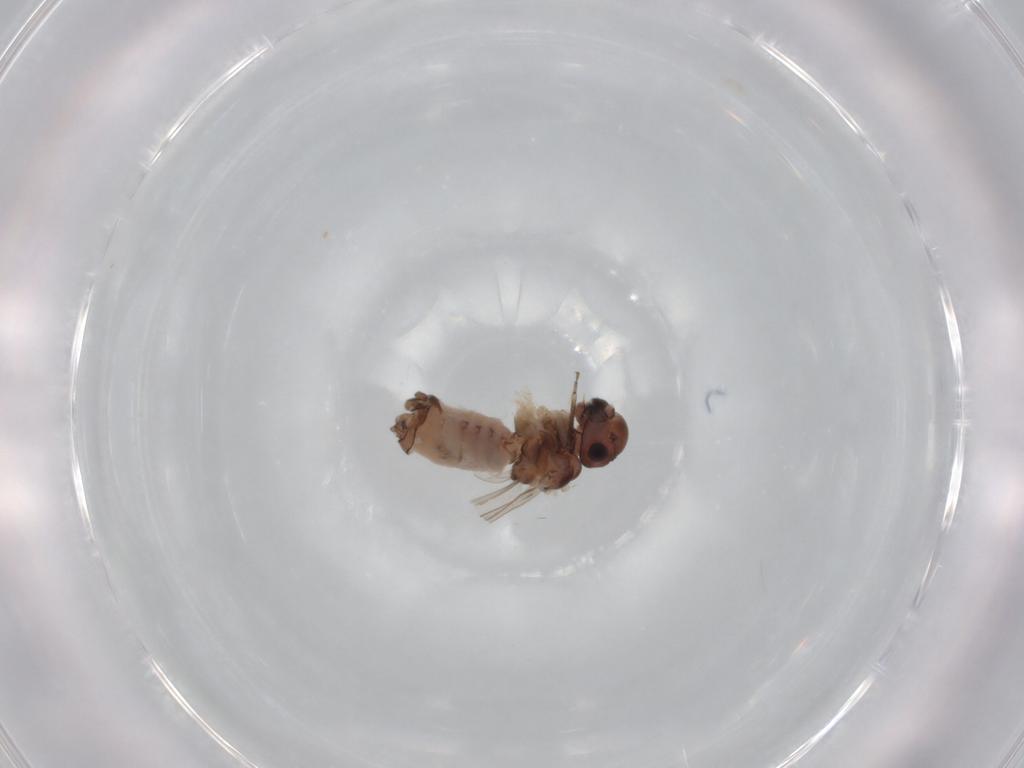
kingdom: Animalia
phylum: Arthropoda
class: Insecta
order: Psocodea
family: Peripsocidae
